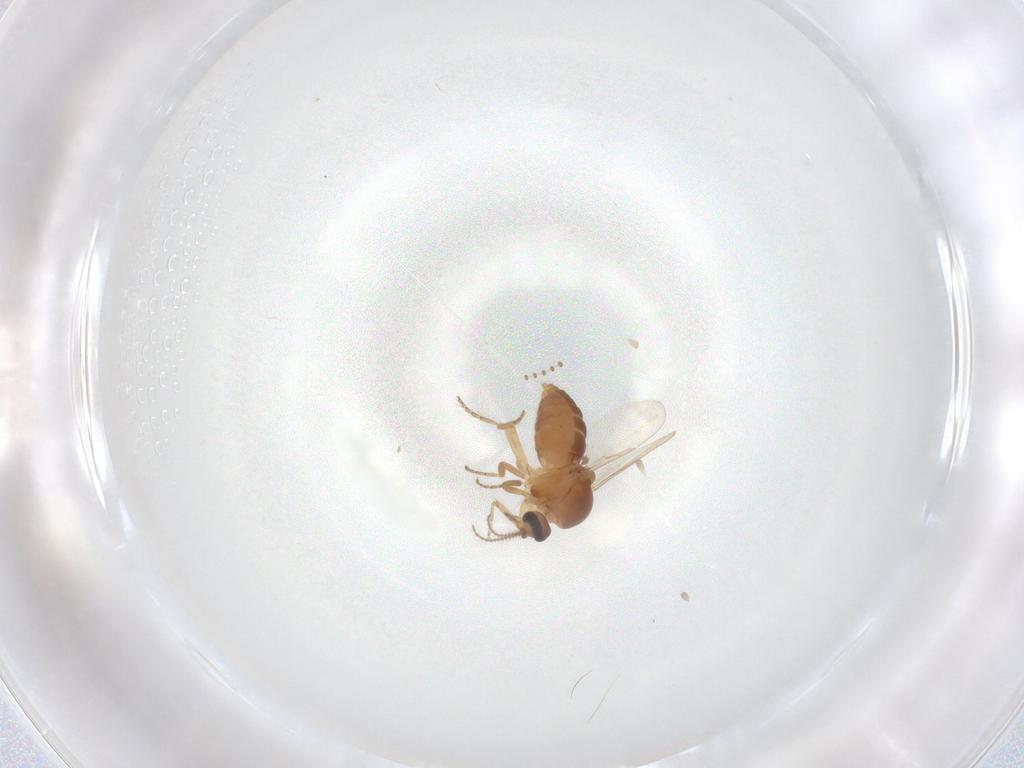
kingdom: Animalia
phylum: Arthropoda
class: Insecta
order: Diptera
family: Ceratopogonidae
